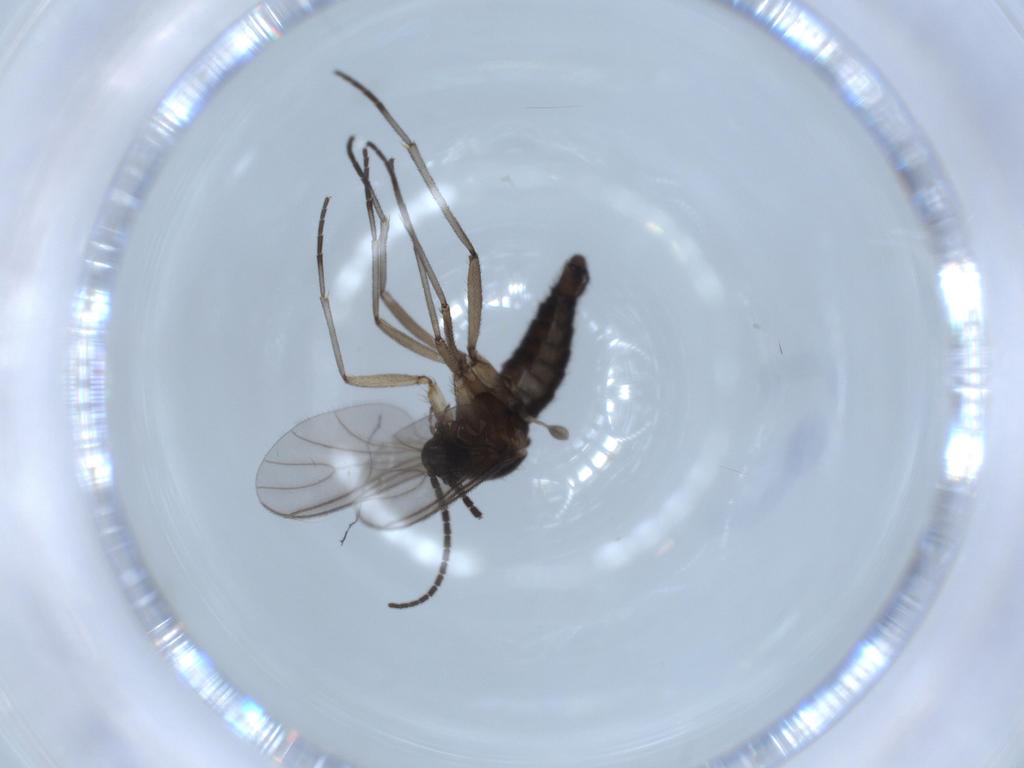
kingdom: Animalia
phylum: Arthropoda
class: Insecta
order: Diptera
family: Sciaridae
